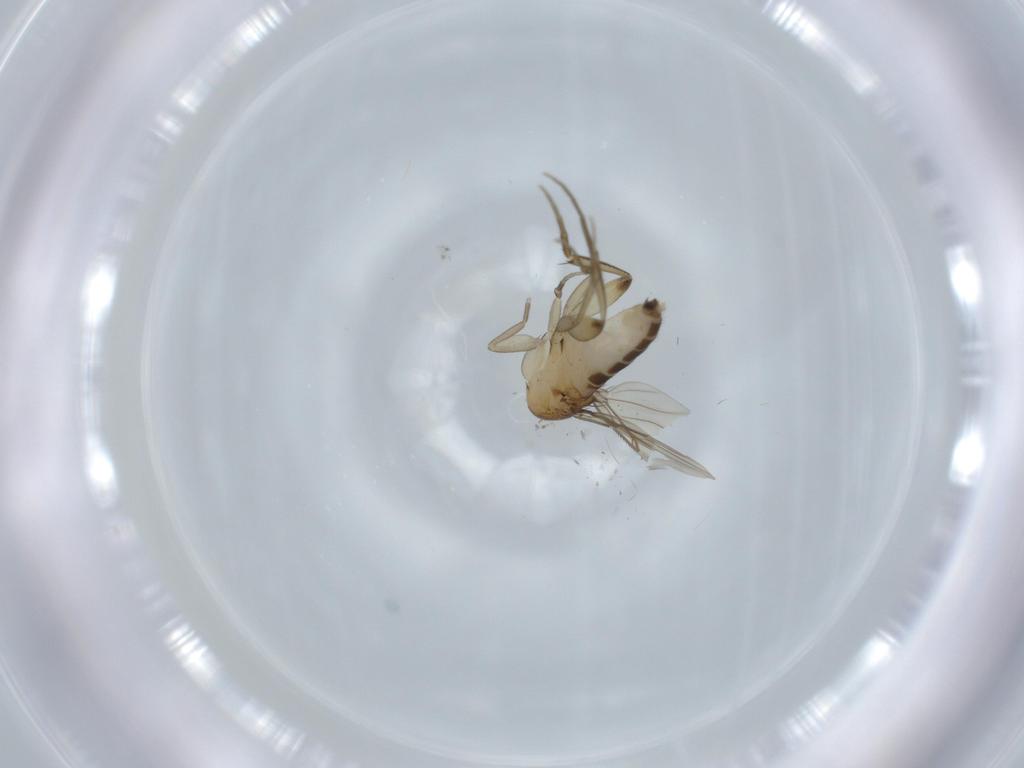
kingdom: Animalia
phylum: Arthropoda
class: Insecta
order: Diptera
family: Phoridae
